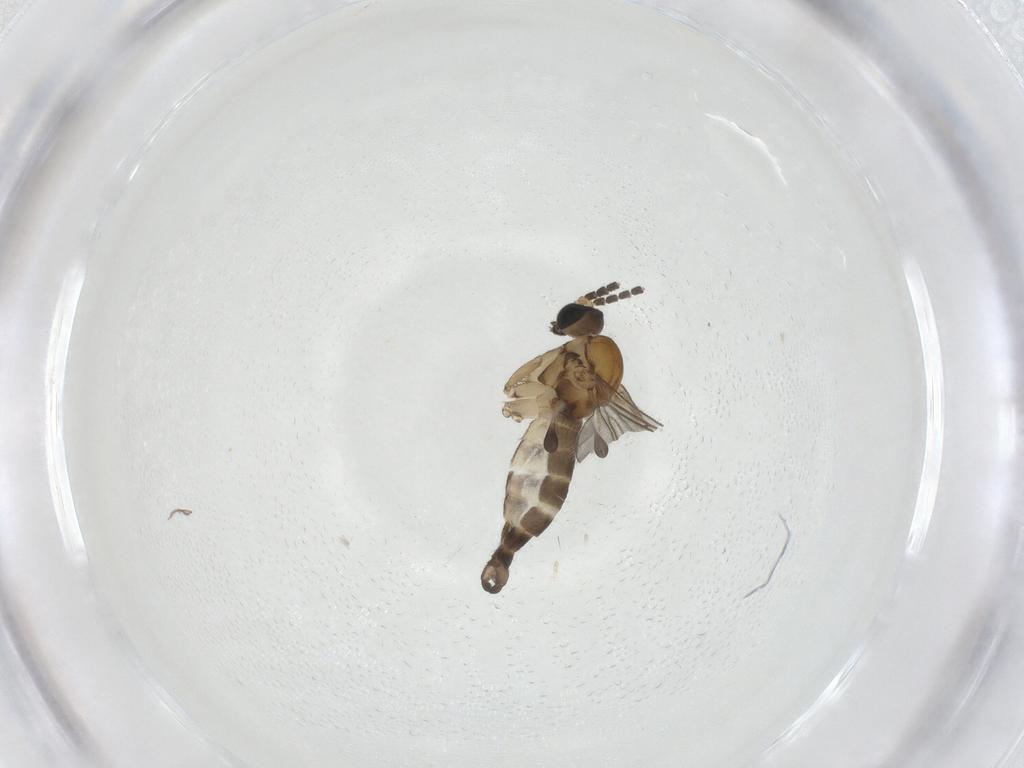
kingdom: Animalia
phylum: Arthropoda
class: Insecta
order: Diptera
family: Sciaridae
